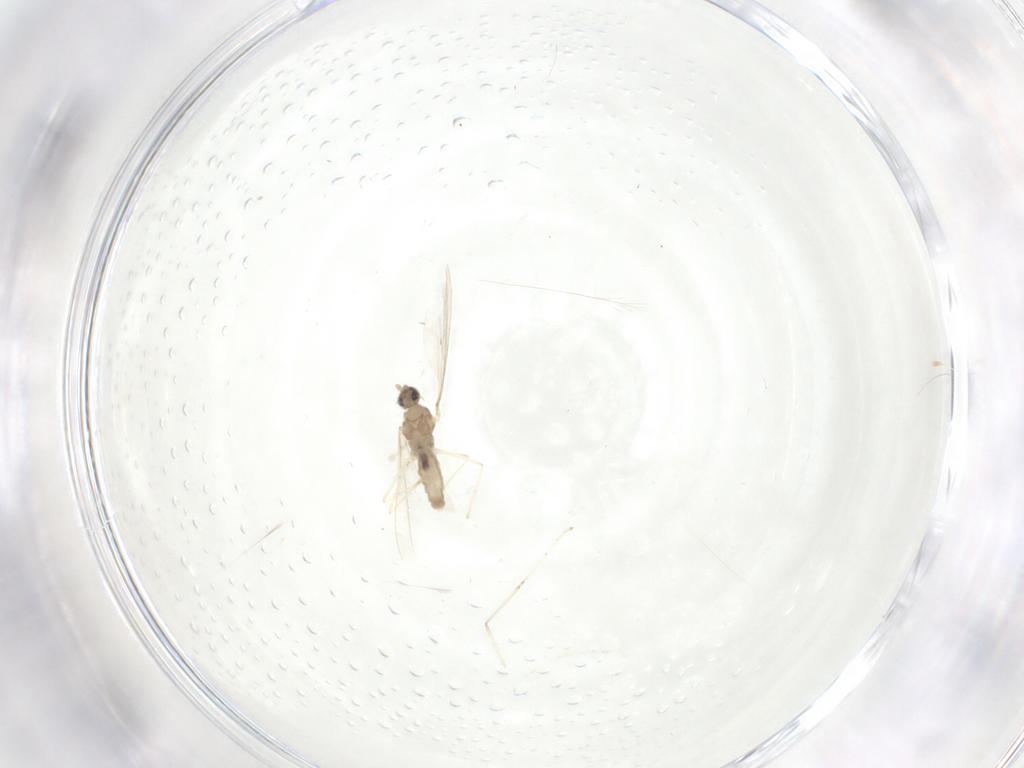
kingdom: Animalia
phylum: Arthropoda
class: Insecta
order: Diptera
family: Cecidomyiidae
